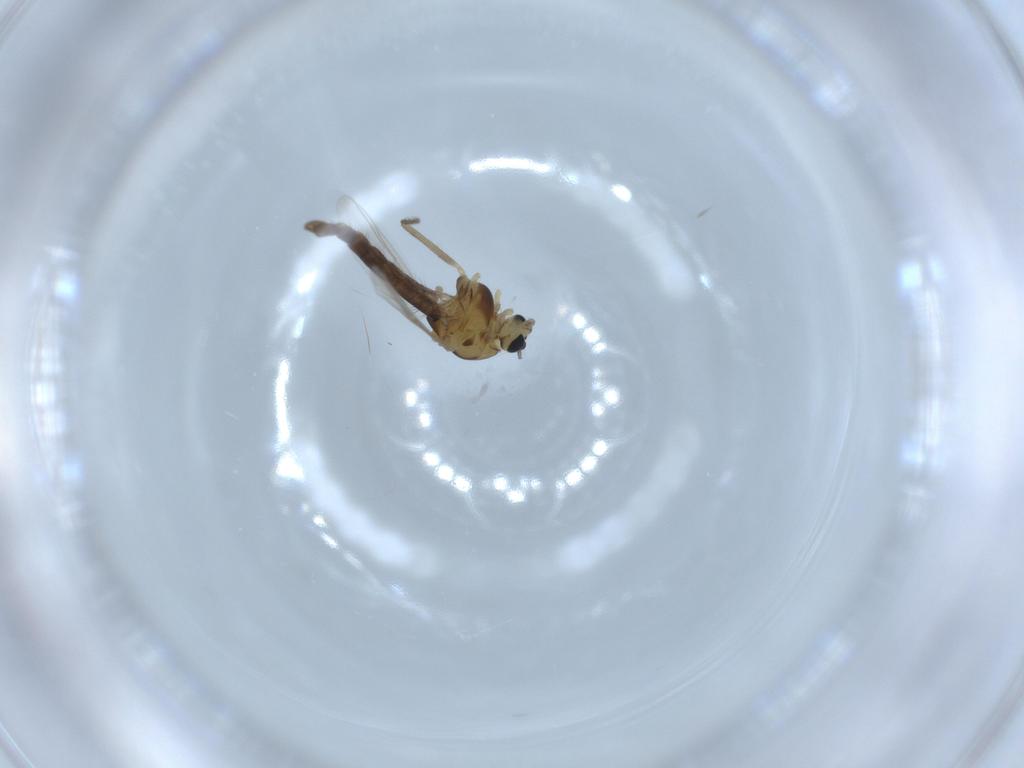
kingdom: Animalia
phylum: Arthropoda
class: Insecta
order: Diptera
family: Chironomidae
